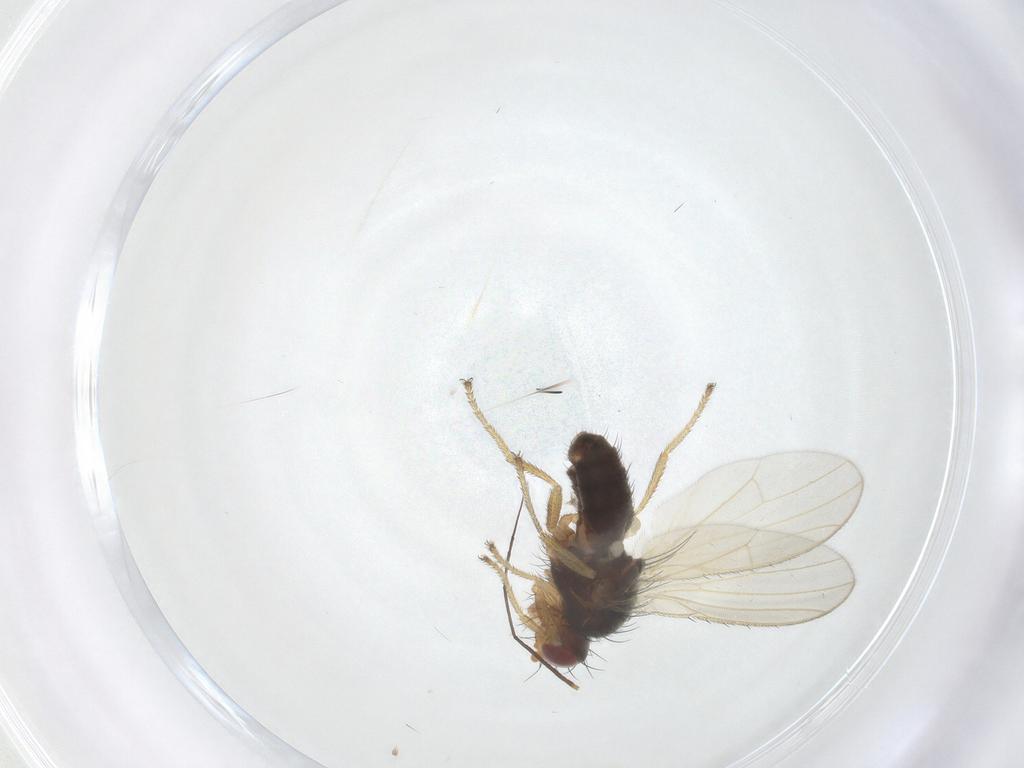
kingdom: Animalia
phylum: Arthropoda
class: Insecta
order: Diptera
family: Heleomyzidae
